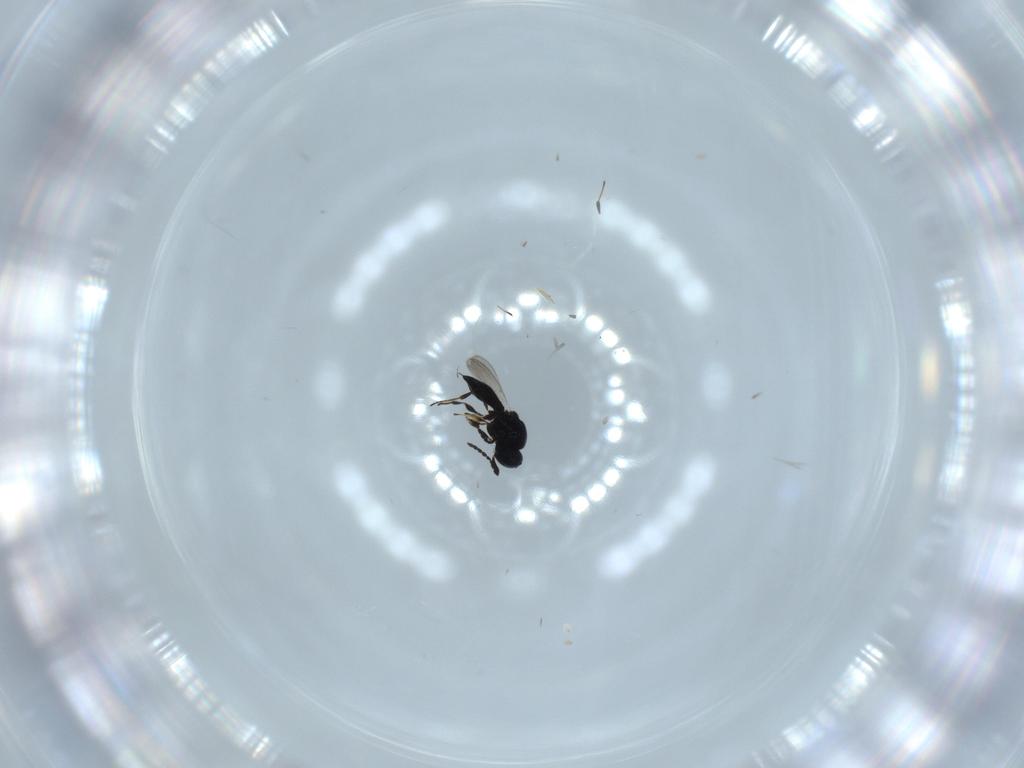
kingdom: Animalia
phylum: Arthropoda
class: Insecta
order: Hymenoptera
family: Platygastridae
